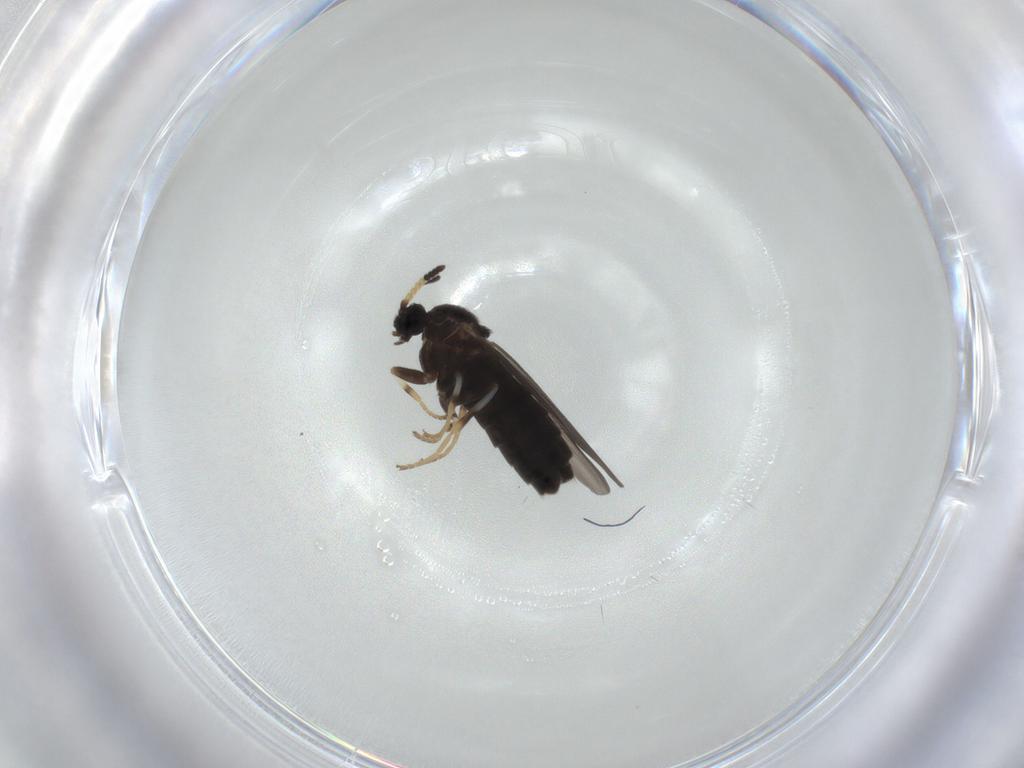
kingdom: Animalia
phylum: Arthropoda
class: Insecta
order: Diptera
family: Scatopsidae
